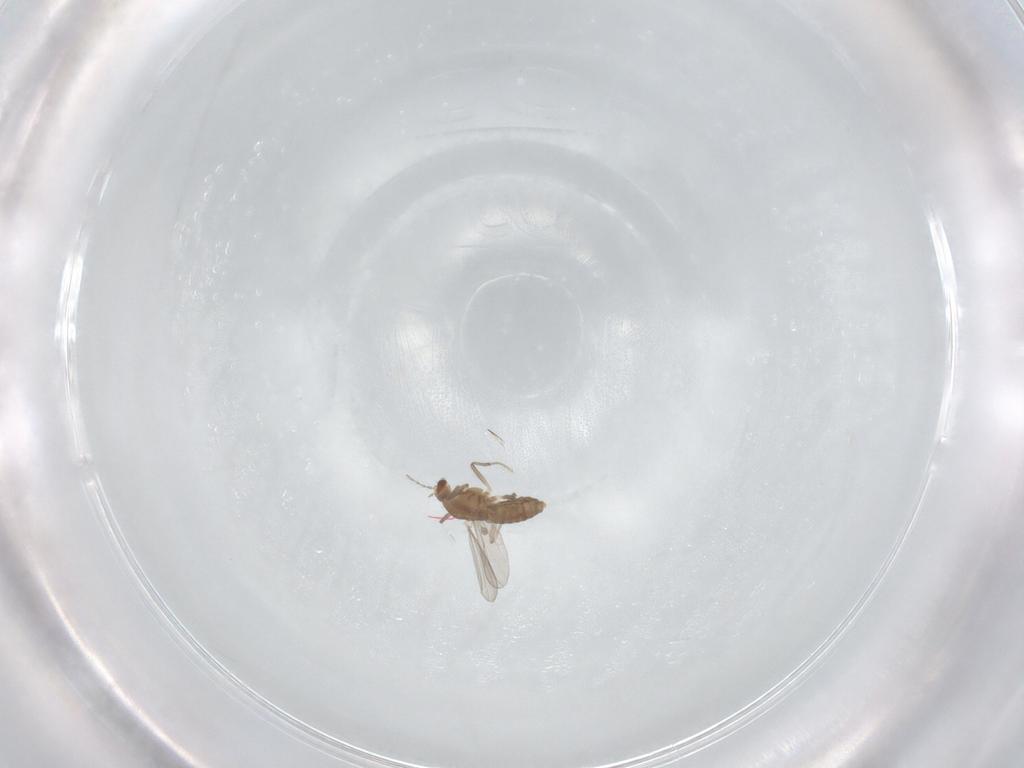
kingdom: Animalia
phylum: Arthropoda
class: Insecta
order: Diptera
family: Chironomidae
